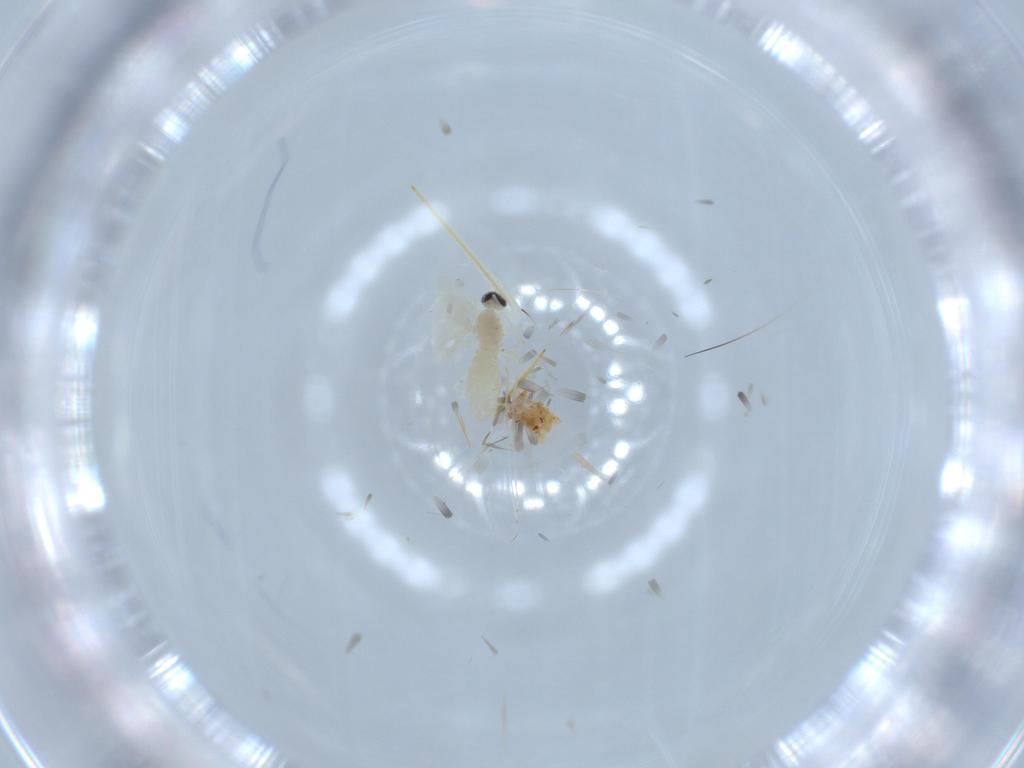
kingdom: Animalia
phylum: Arthropoda
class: Insecta
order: Diptera
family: Cecidomyiidae
